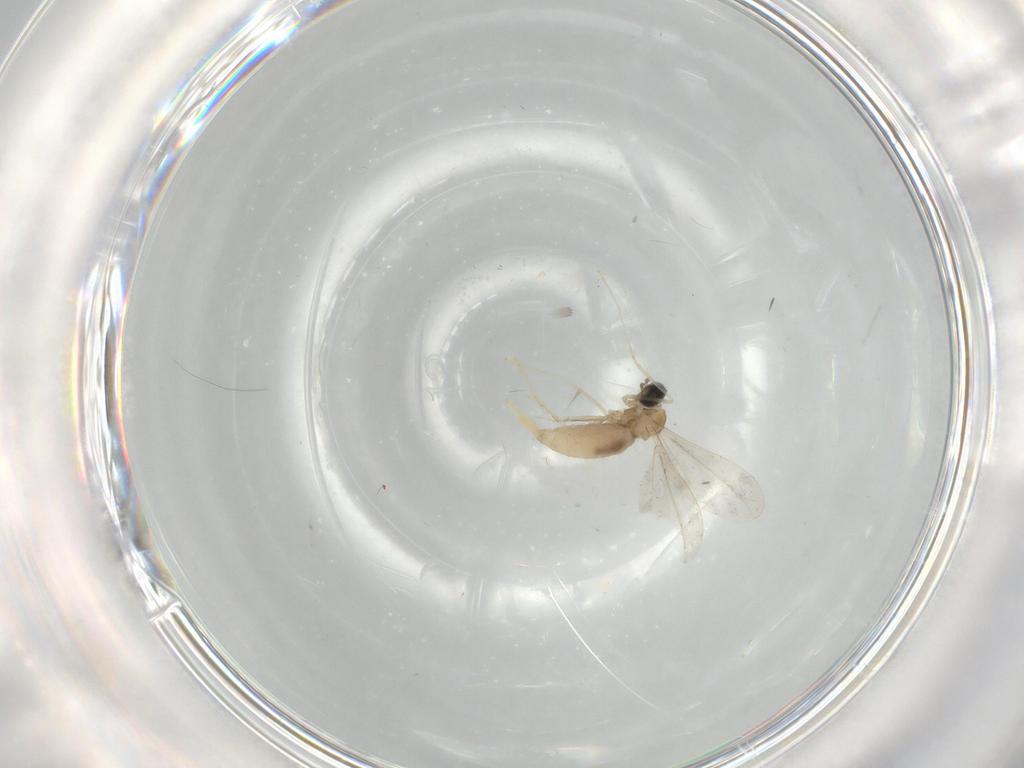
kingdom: Animalia
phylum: Arthropoda
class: Insecta
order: Diptera
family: Cecidomyiidae
